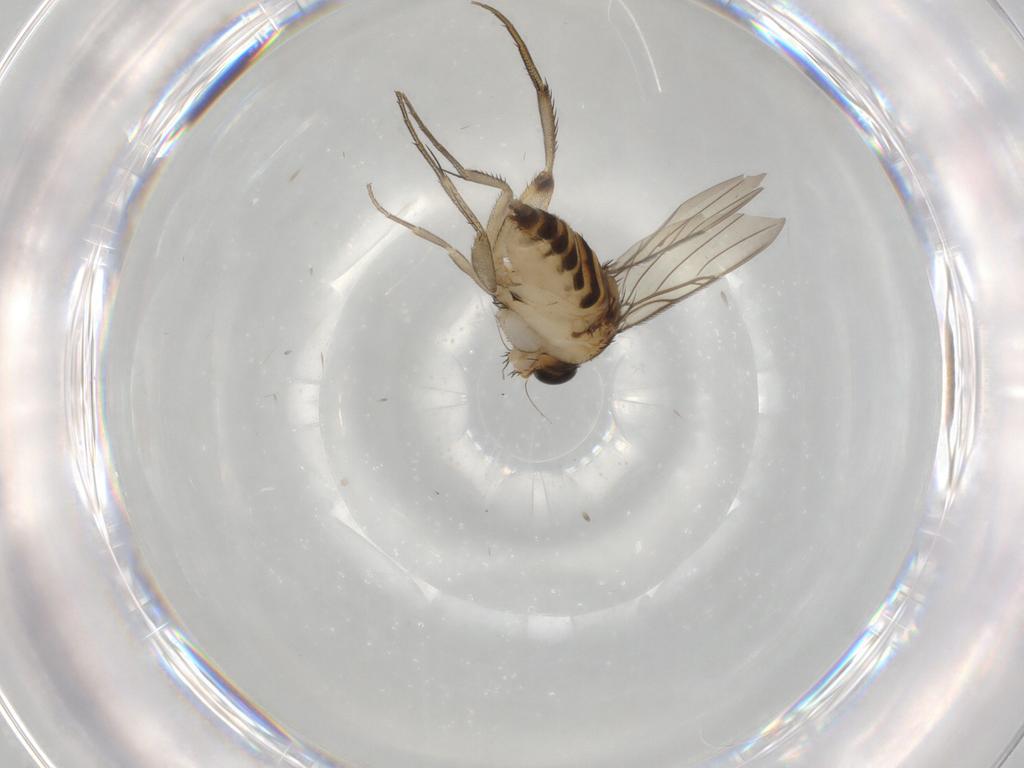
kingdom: Animalia
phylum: Arthropoda
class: Insecta
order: Diptera
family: Phoridae
